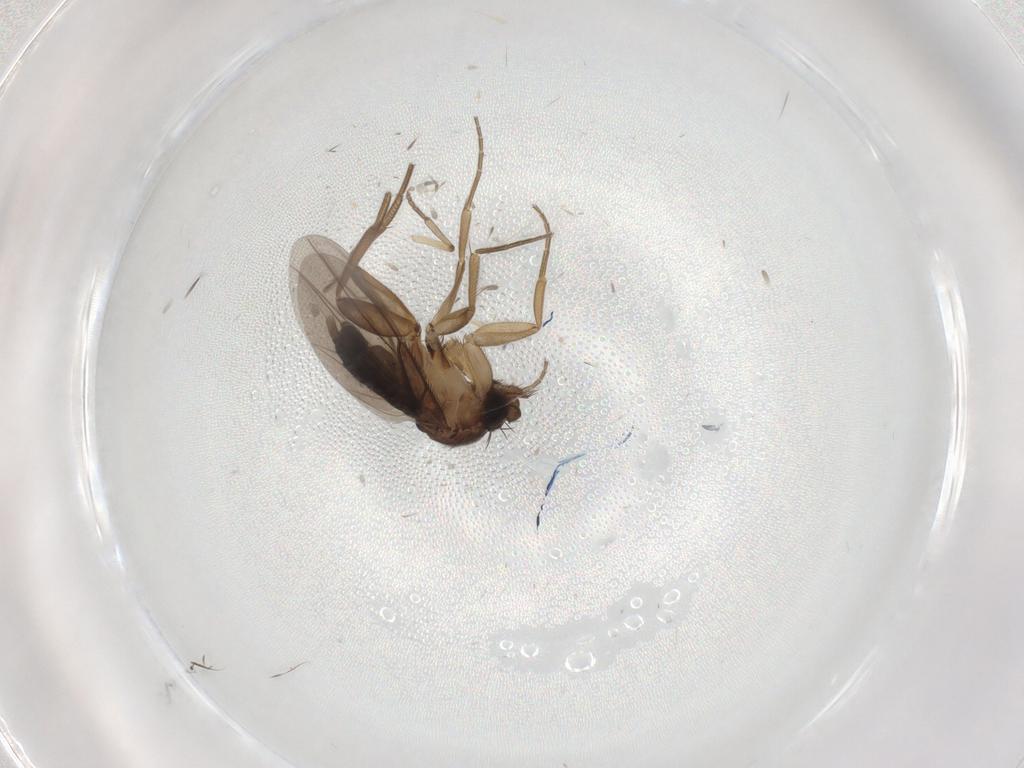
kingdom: Animalia
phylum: Arthropoda
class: Insecta
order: Diptera
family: Psychodidae
